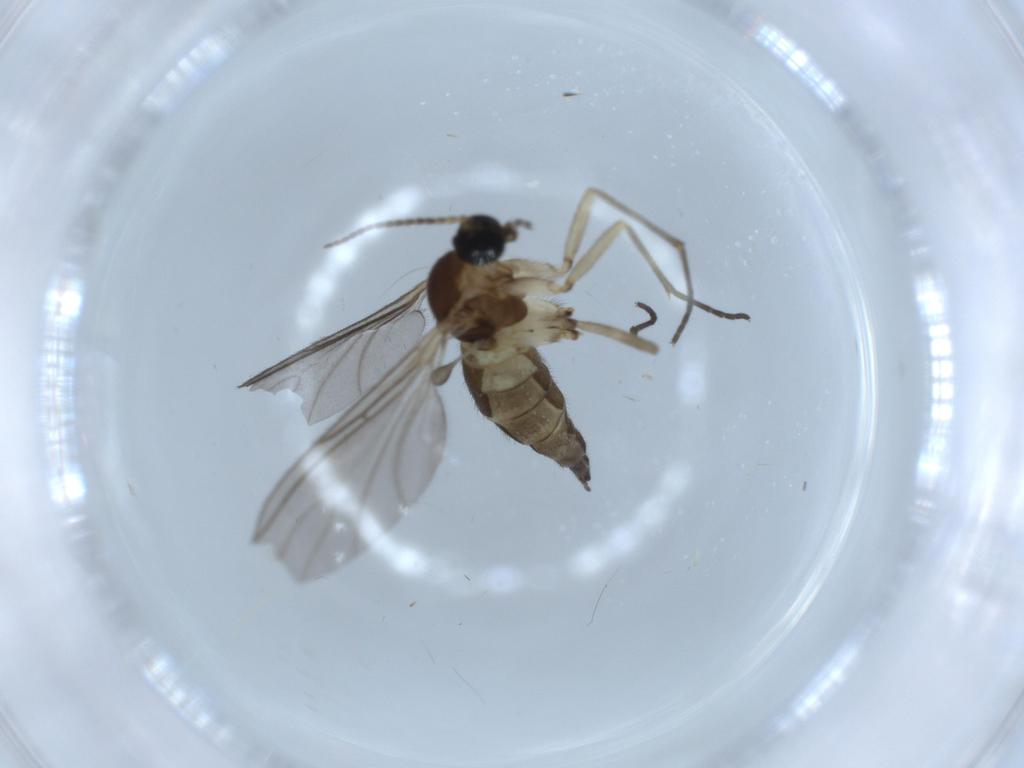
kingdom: Animalia
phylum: Arthropoda
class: Insecta
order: Diptera
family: Sciaridae
